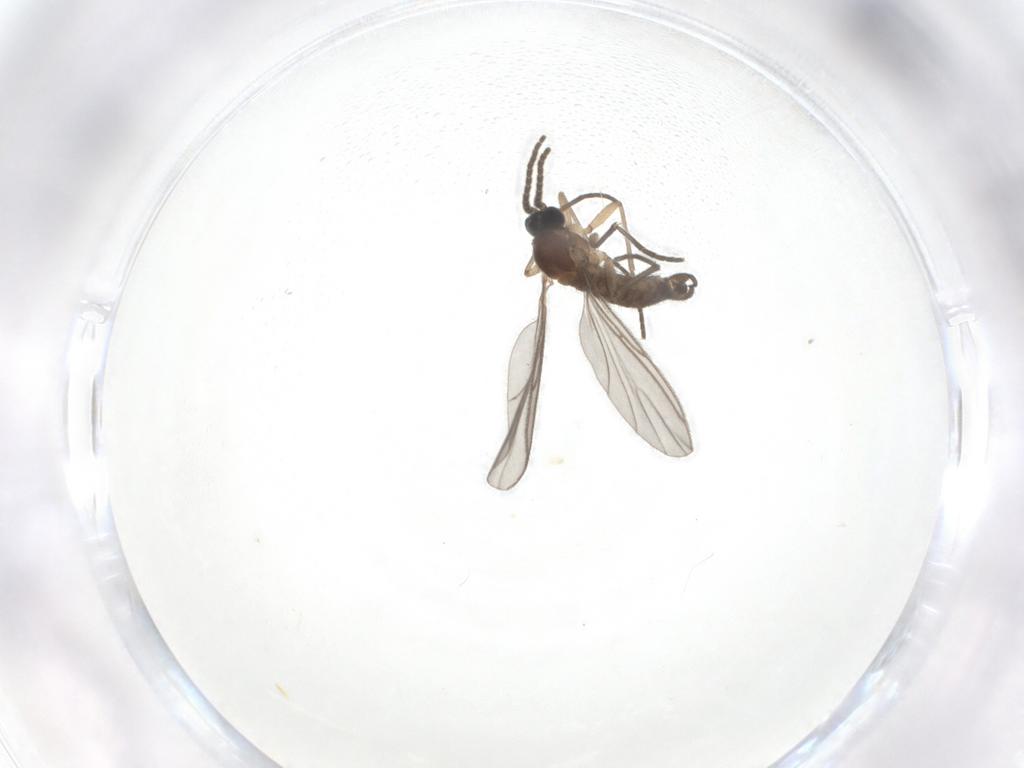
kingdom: Animalia
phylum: Arthropoda
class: Insecta
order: Diptera
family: Sciaridae
